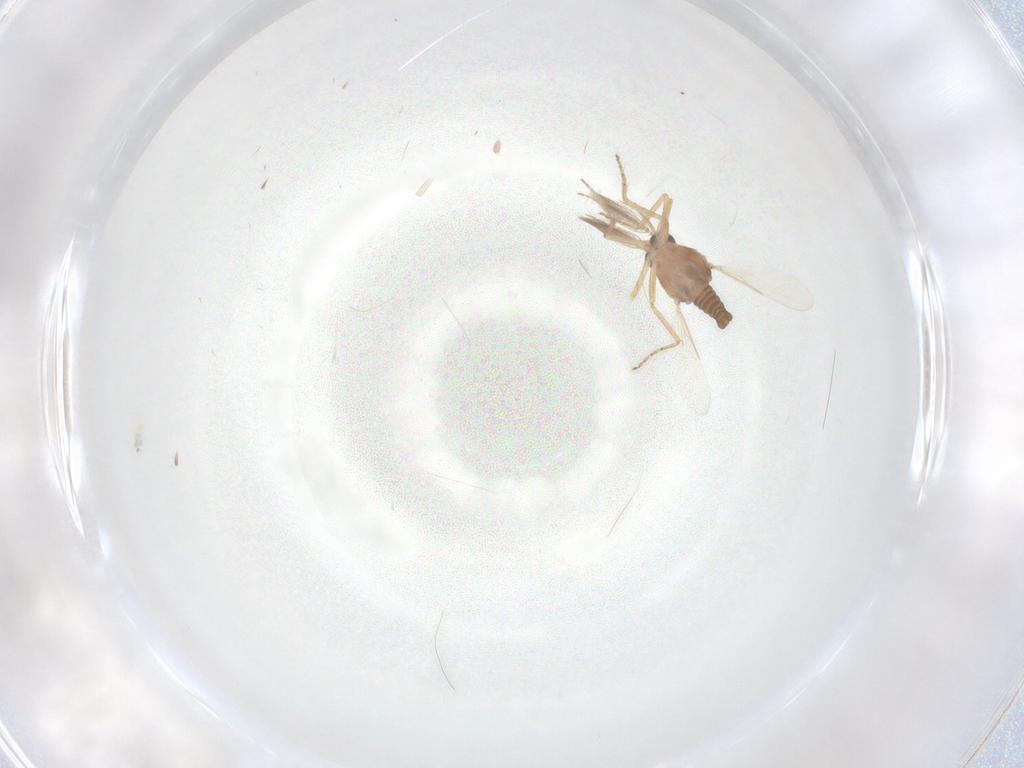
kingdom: Animalia
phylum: Arthropoda
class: Insecta
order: Diptera
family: Ceratopogonidae
